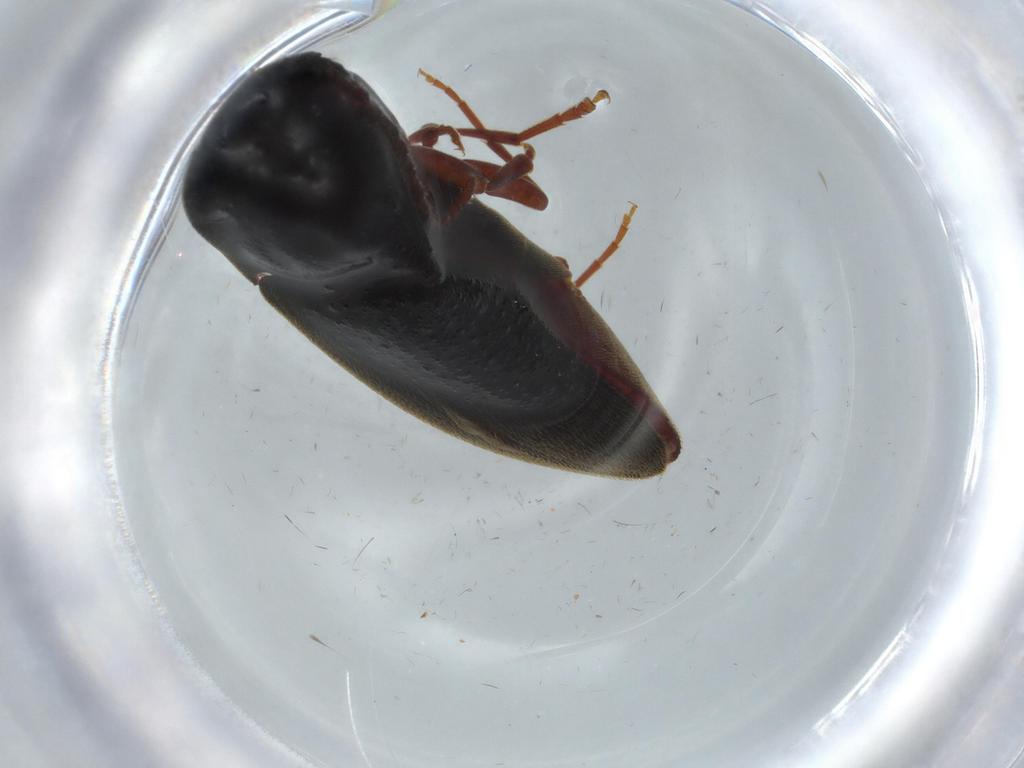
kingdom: Animalia
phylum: Arthropoda
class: Insecta
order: Coleoptera
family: Eucnemidae
